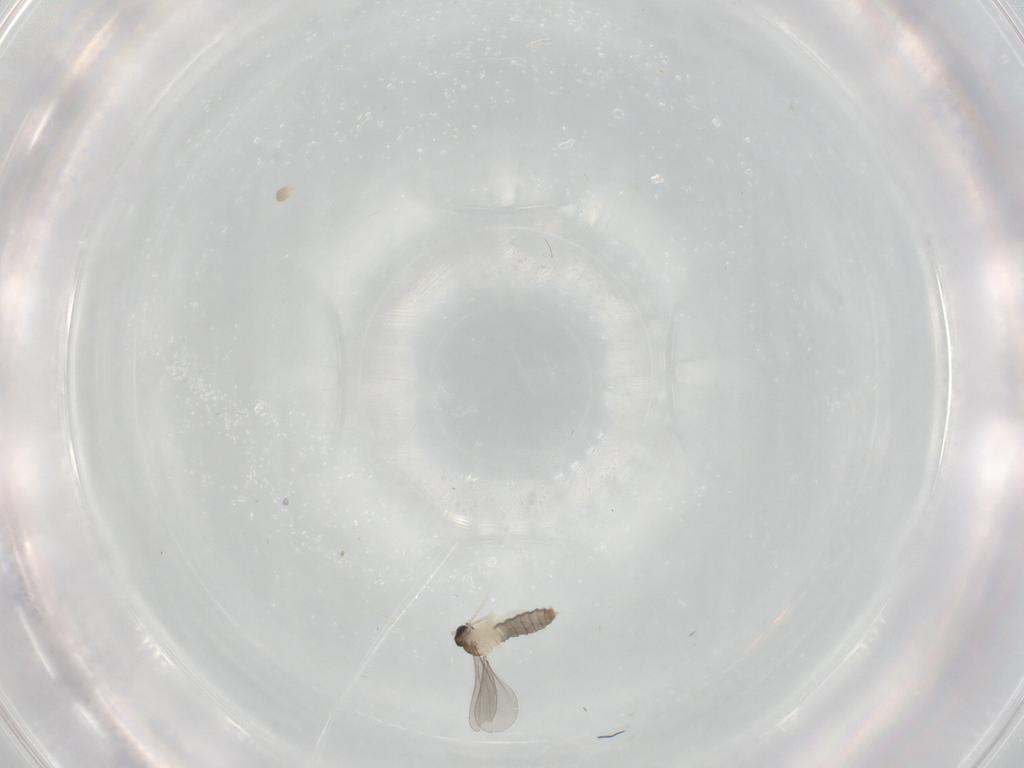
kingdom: Animalia
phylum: Arthropoda
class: Insecta
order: Diptera
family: Cecidomyiidae
